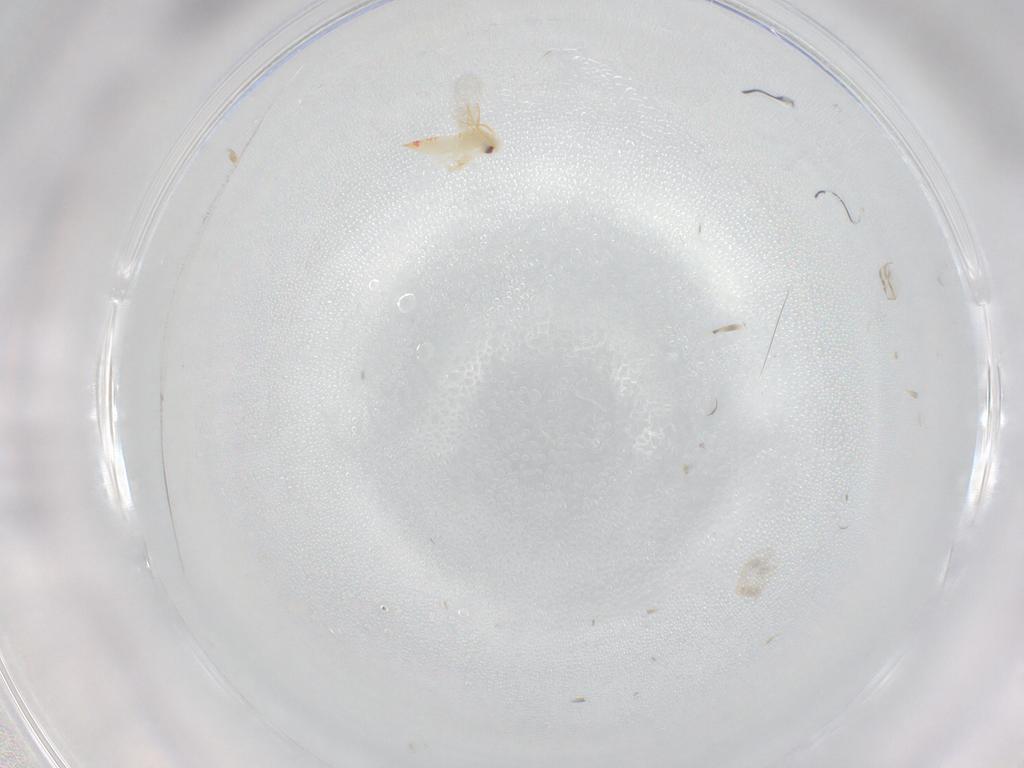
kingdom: Animalia
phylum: Arthropoda
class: Insecta
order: Hemiptera
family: Aleyrodidae
